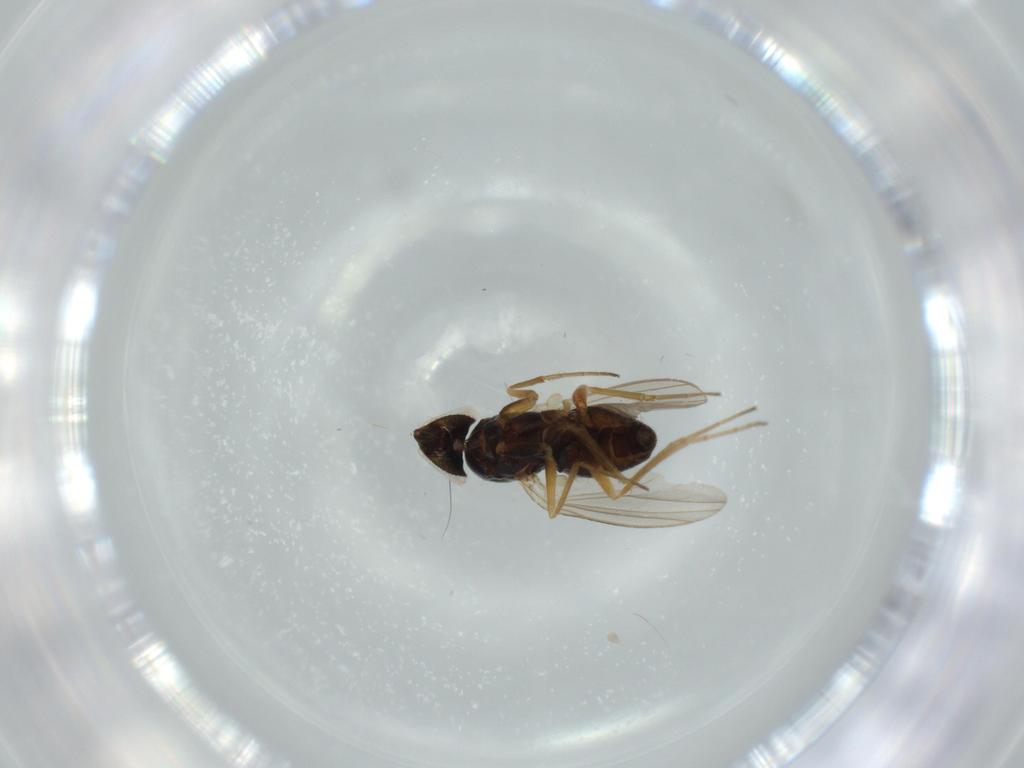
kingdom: Animalia
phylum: Arthropoda
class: Insecta
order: Diptera
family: Dolichopodidae
